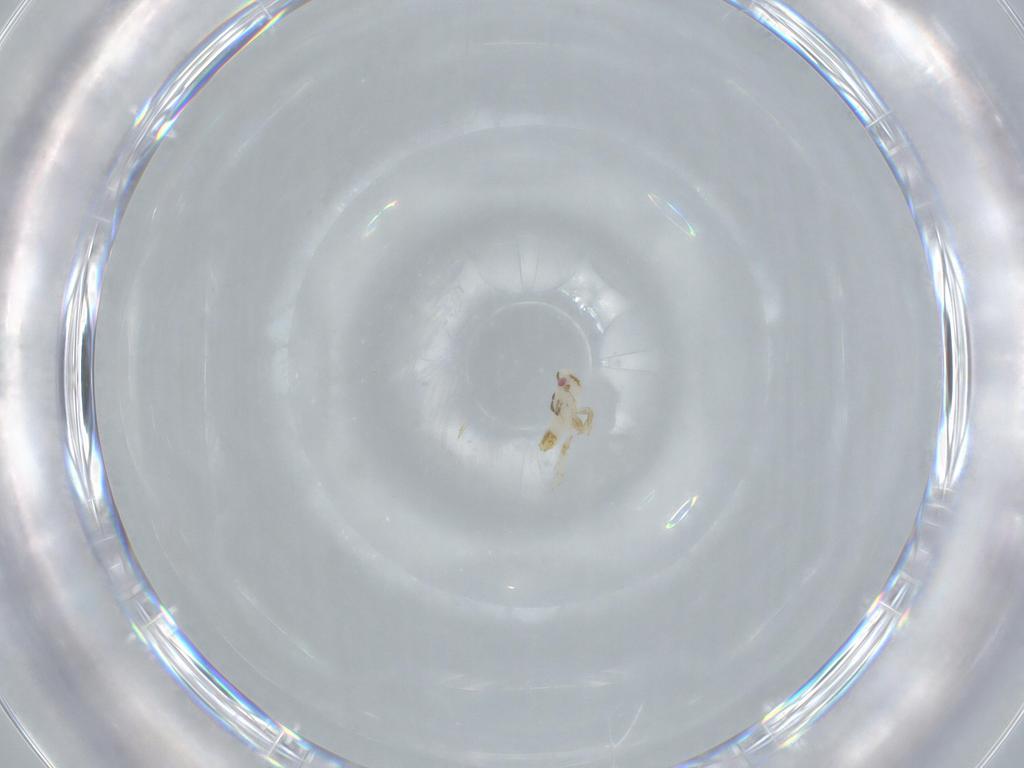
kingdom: Animalia
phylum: Arthropoda
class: Insecta
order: Hemiptera
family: Delphacidae
